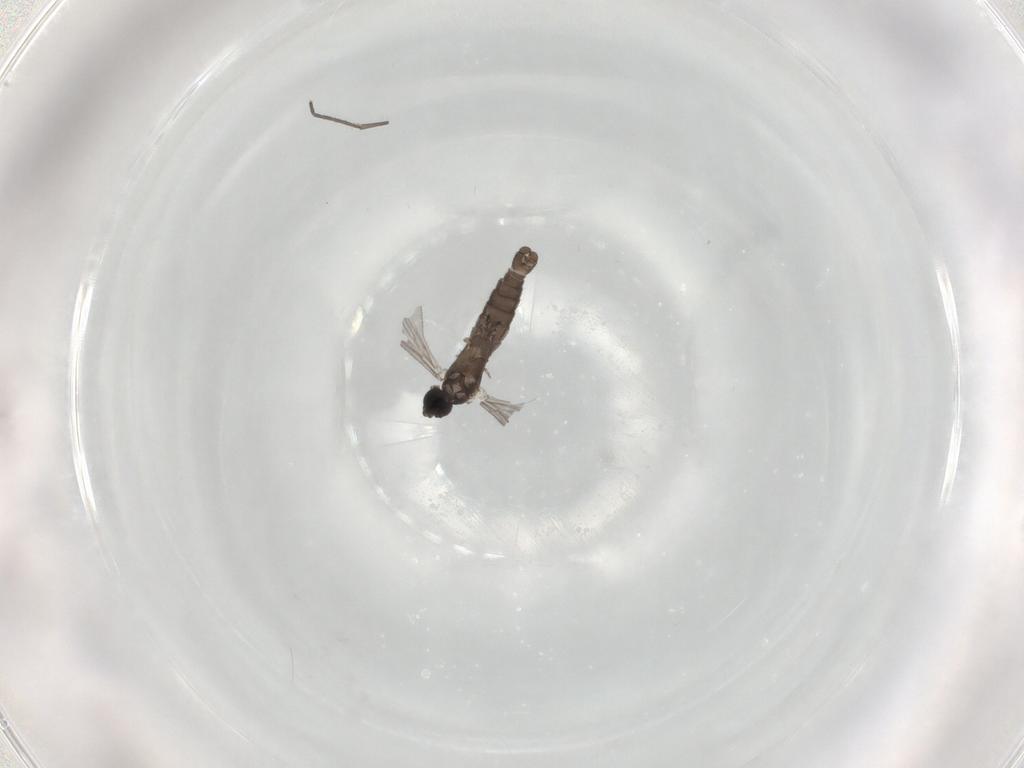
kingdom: Animalia
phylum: Arthropoda
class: Insecta
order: Diptera
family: Sciaridae
